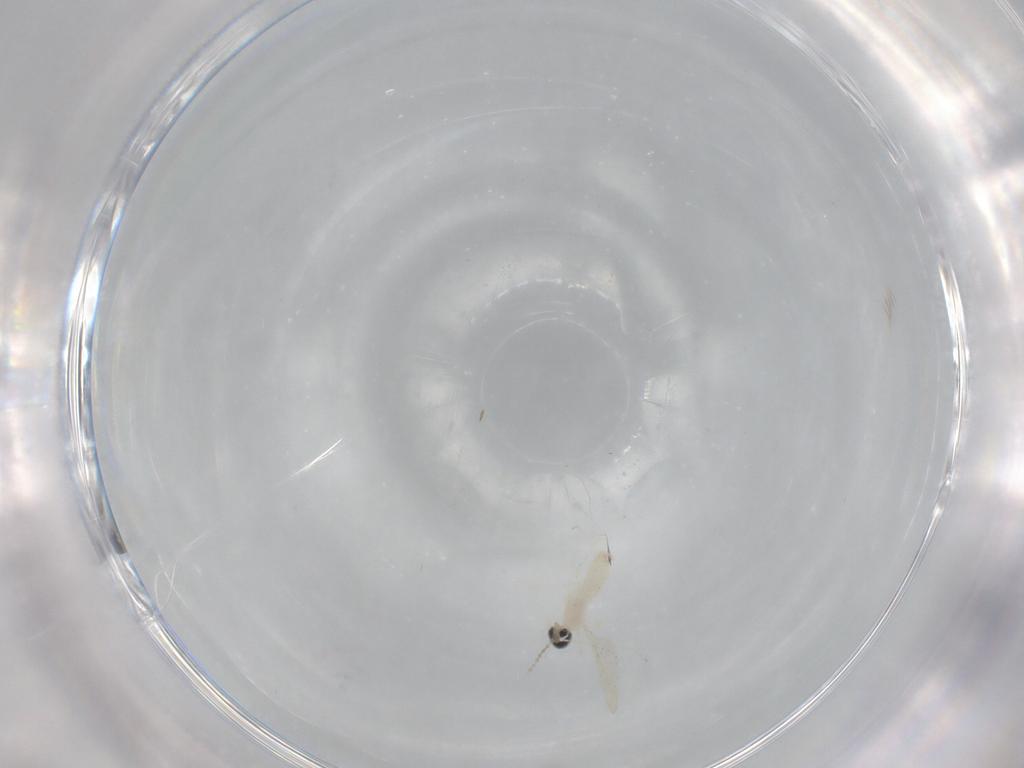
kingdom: Animalia
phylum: Arthropoda
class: Insecta
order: Diptera
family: Cecidomyiidae
